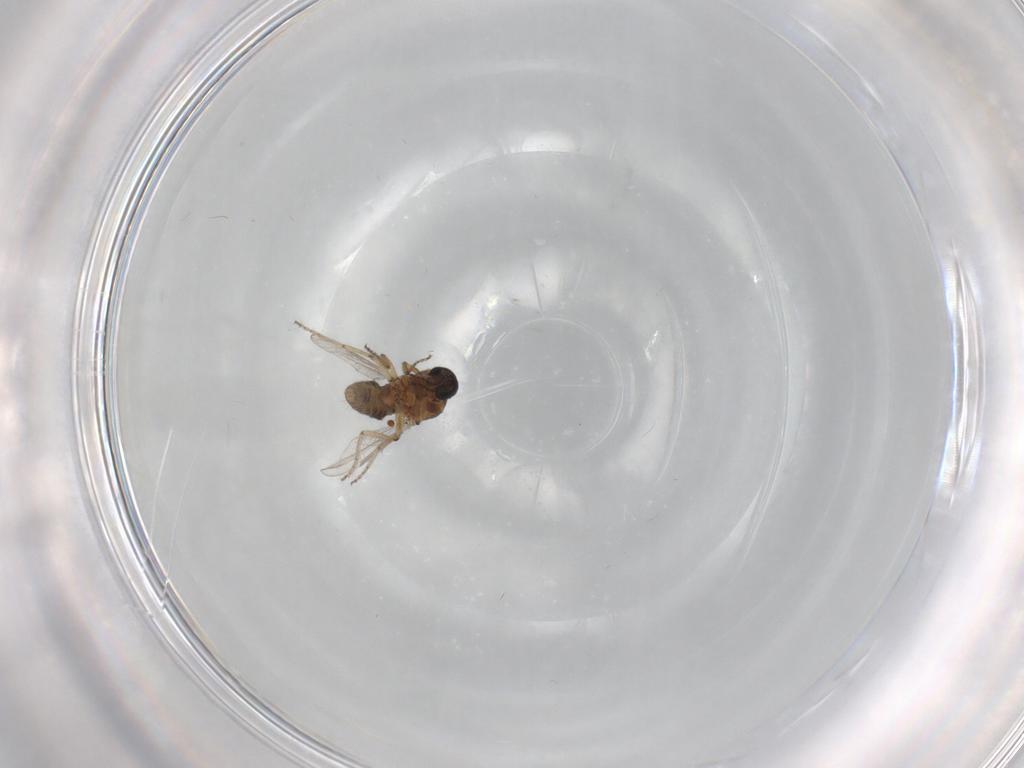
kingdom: Animalia
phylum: Arthropoda
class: Insecta
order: Diptera
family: Ceratopogonidae
